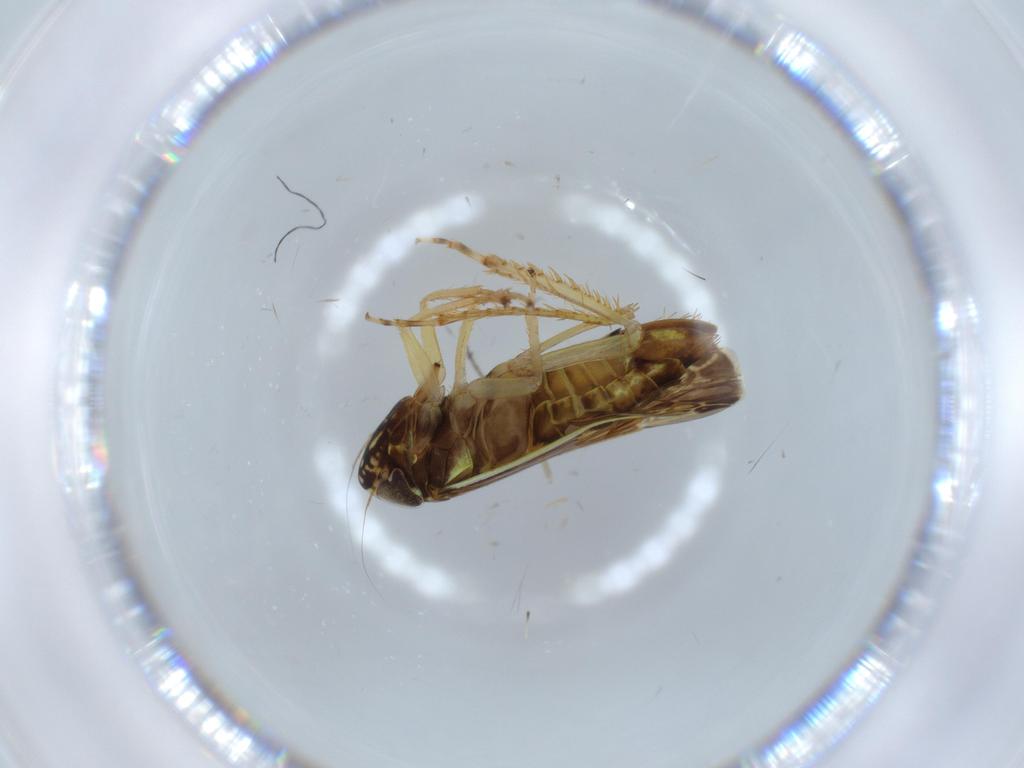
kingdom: Animalia
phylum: Arthropoda
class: Insecta
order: Hemiptera
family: Cicadellidae
